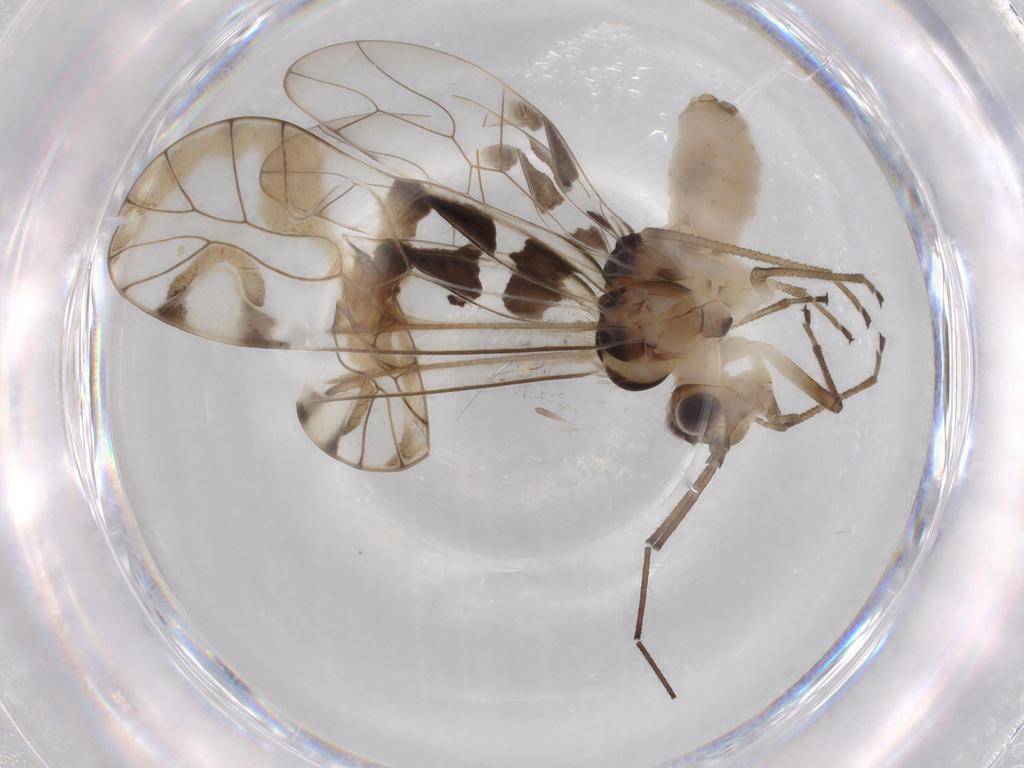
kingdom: Animalia
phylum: Arthropoda
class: Insecta
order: Psocodea
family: Amphipsocidae
